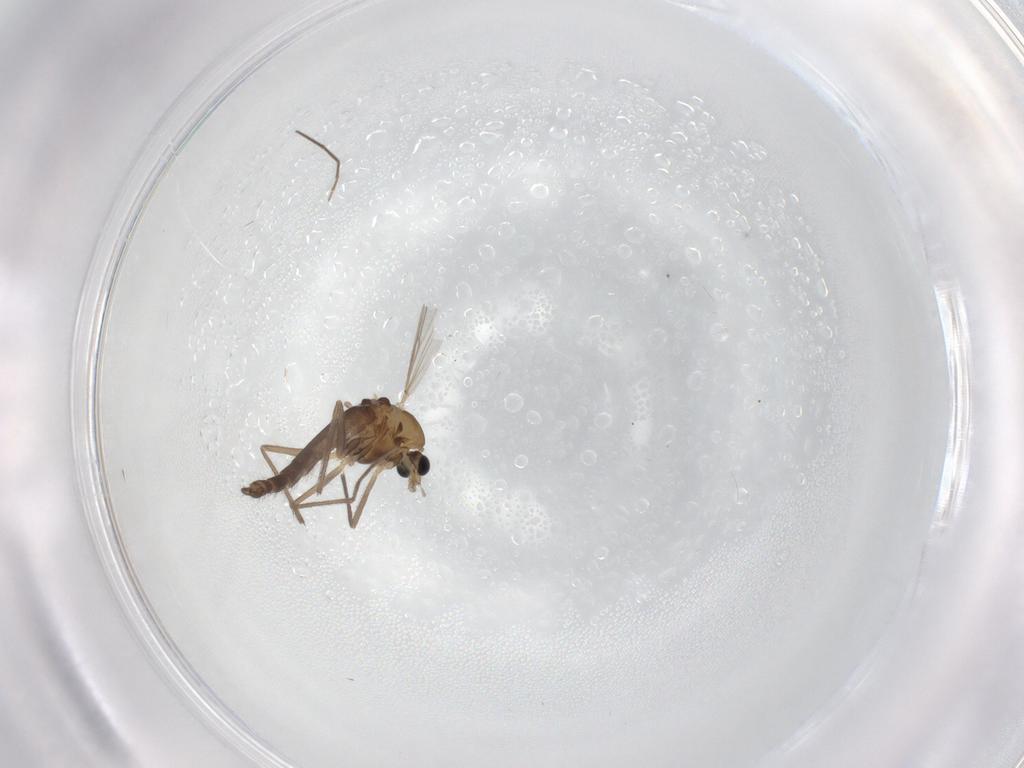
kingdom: Animalia
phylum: Arthropoda
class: Insecta
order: Diptera
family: Chironomidae
